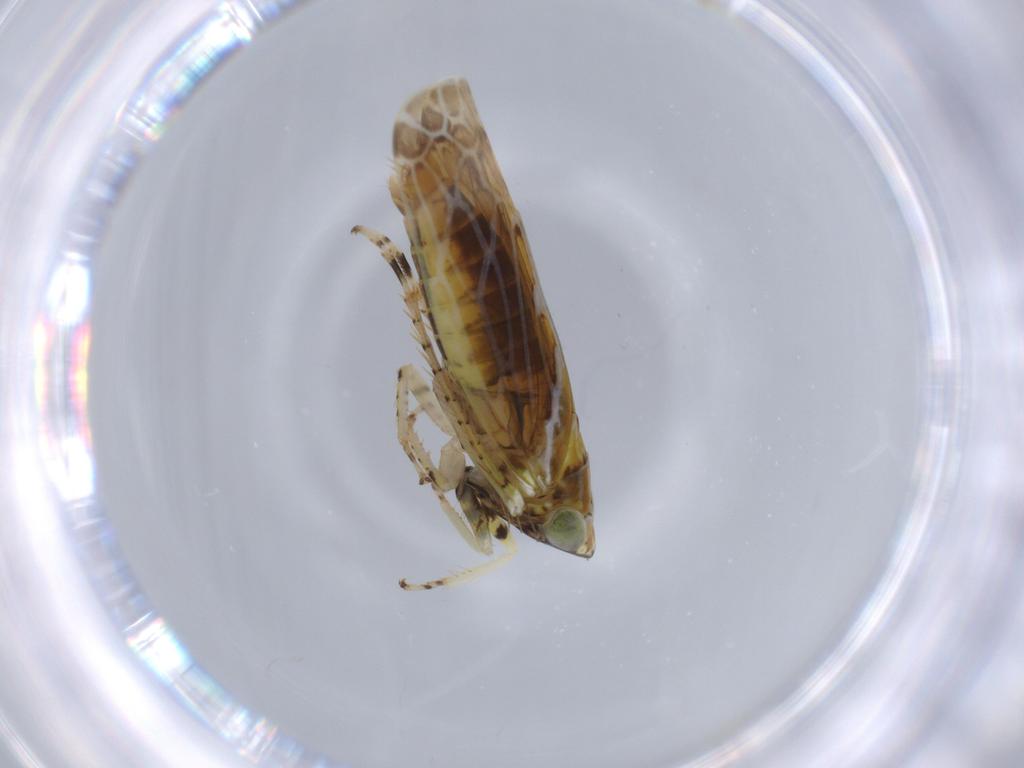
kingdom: Animalia
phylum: Arthropoda
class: Insecta
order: Hemiptera
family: Cicadellidae
